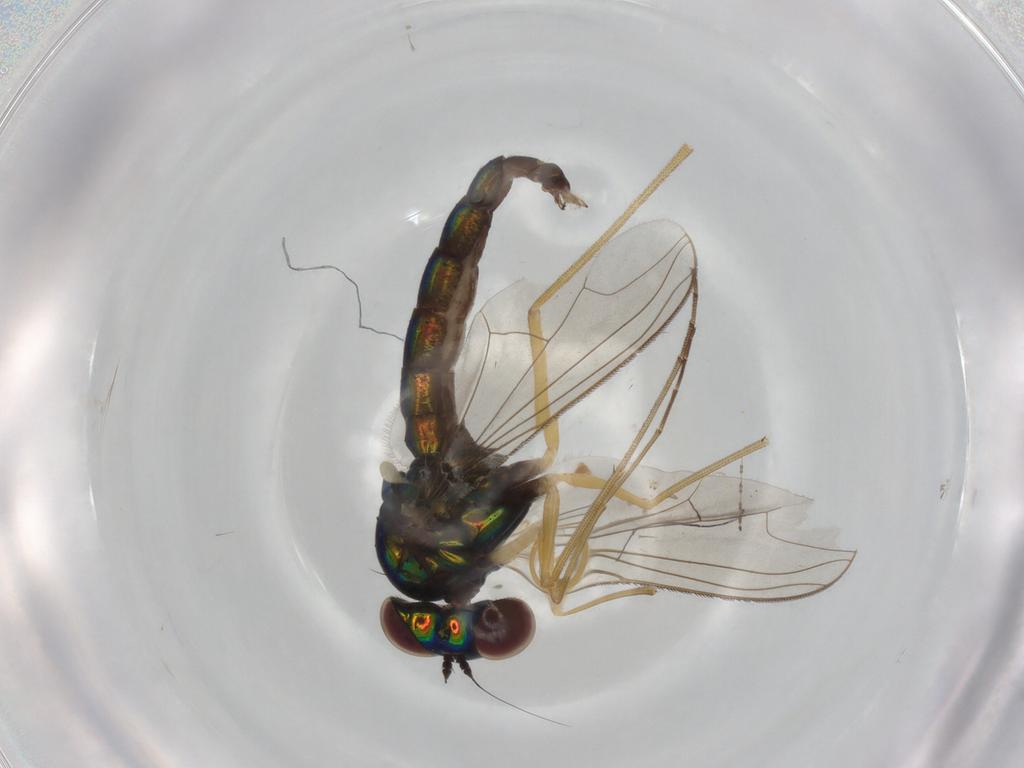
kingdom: Animalia
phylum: Arthropoda
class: Insecta
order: Diptera
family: Dolichopodidae
